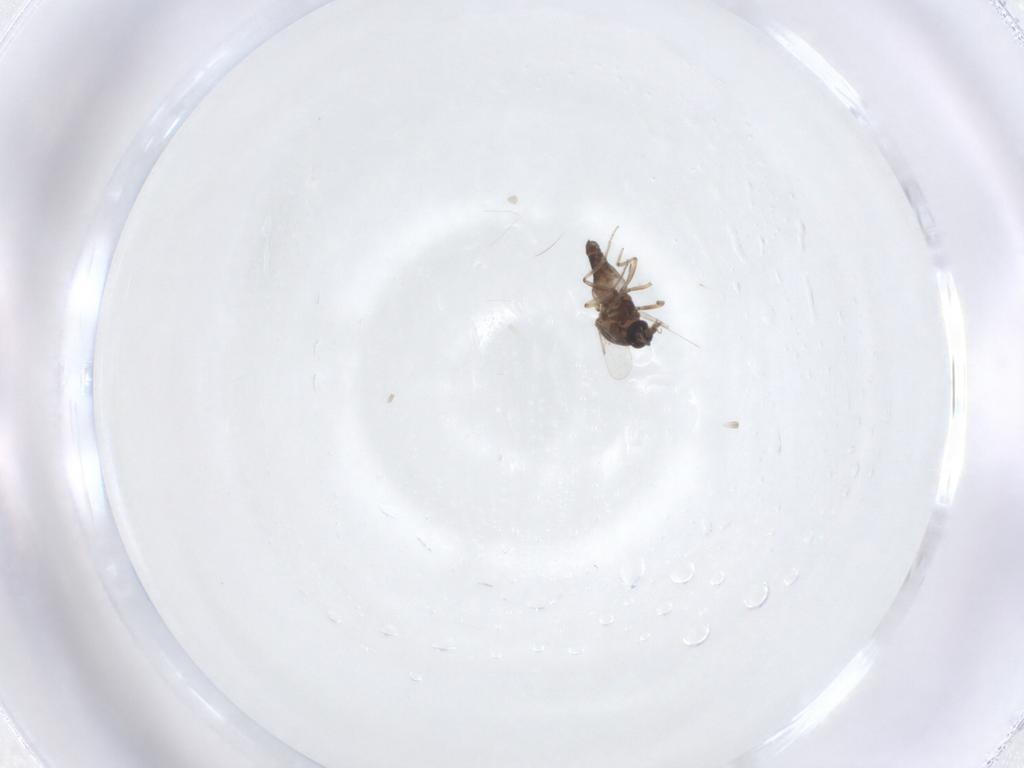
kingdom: Animalia
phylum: Arthropoda
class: Insecta
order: Diptera
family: Ceratopogonidae
